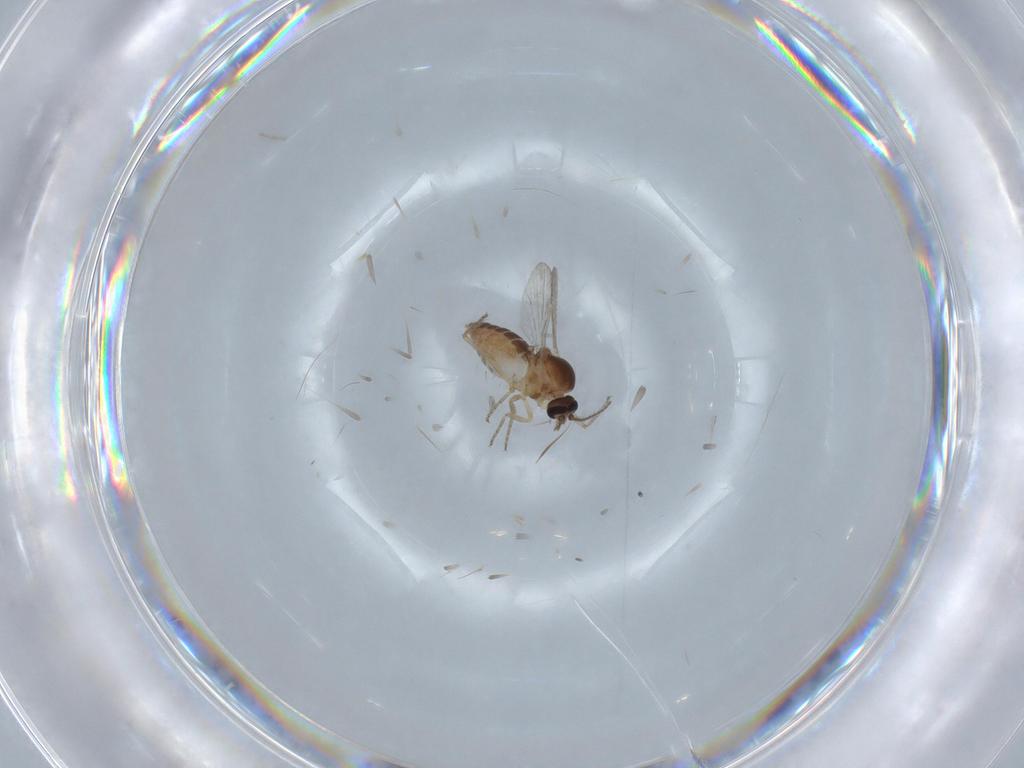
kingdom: Animalia
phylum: Arthropoda
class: Insecta
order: Diptera
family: Ceratopogonidae
